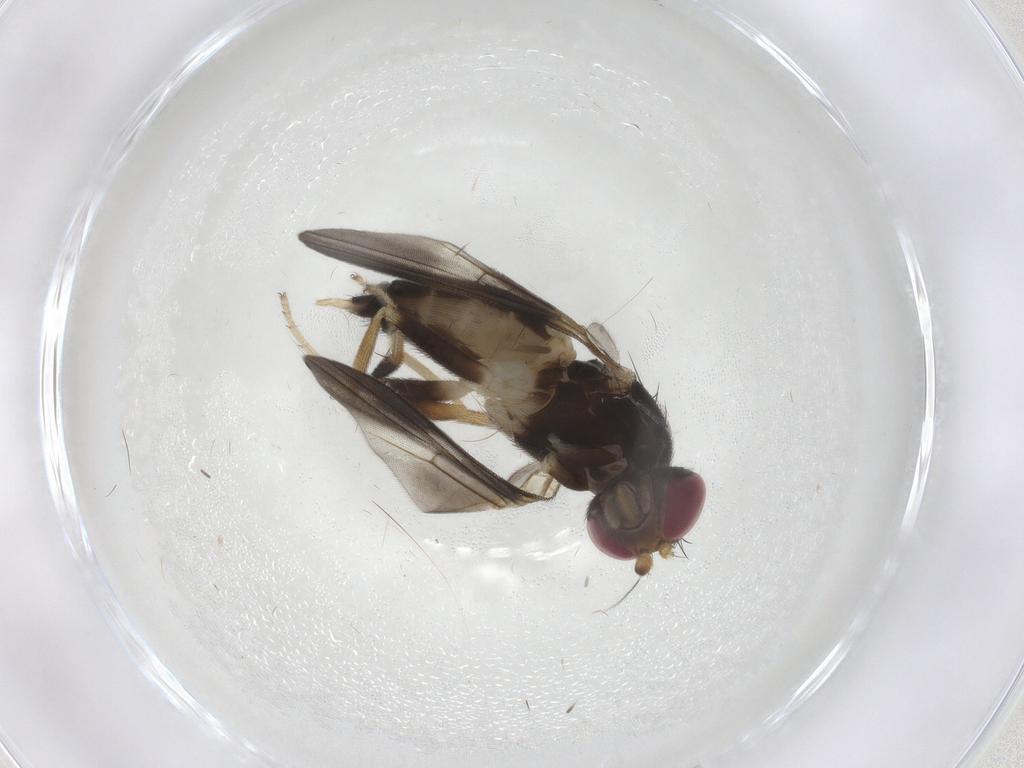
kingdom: Animalia
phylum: Arthropoda
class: Insecta
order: Diptera
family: Clusiidae
